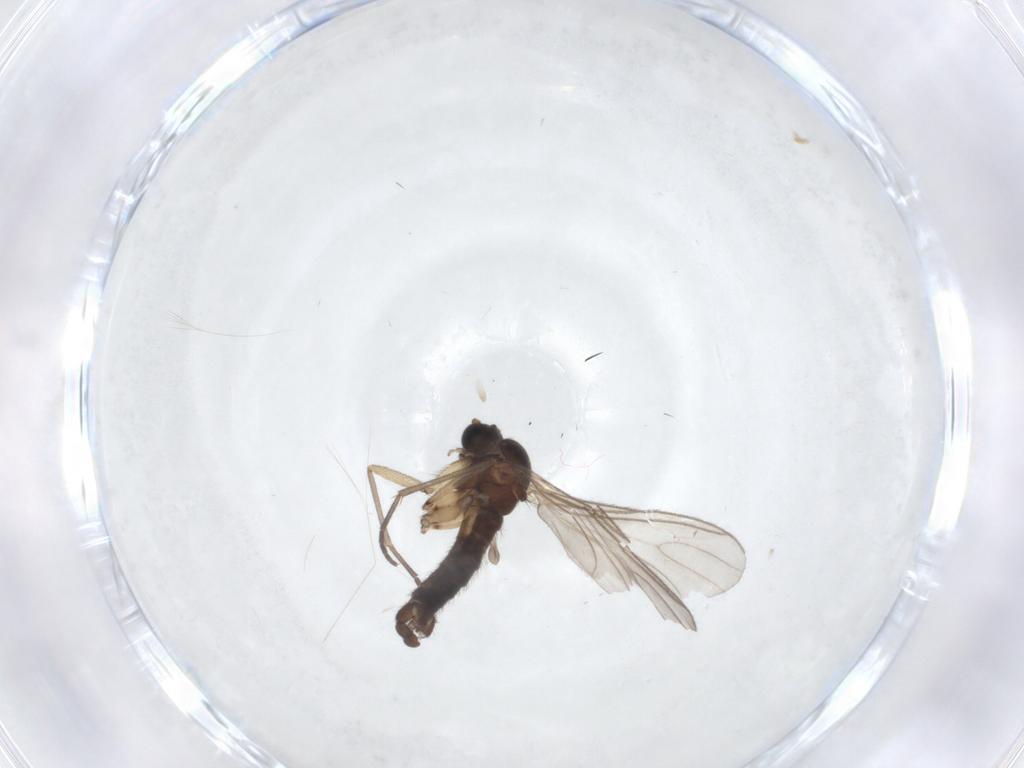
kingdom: Animalia
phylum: Arthropoda
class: Insecta
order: Diptera
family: Sciaridae
